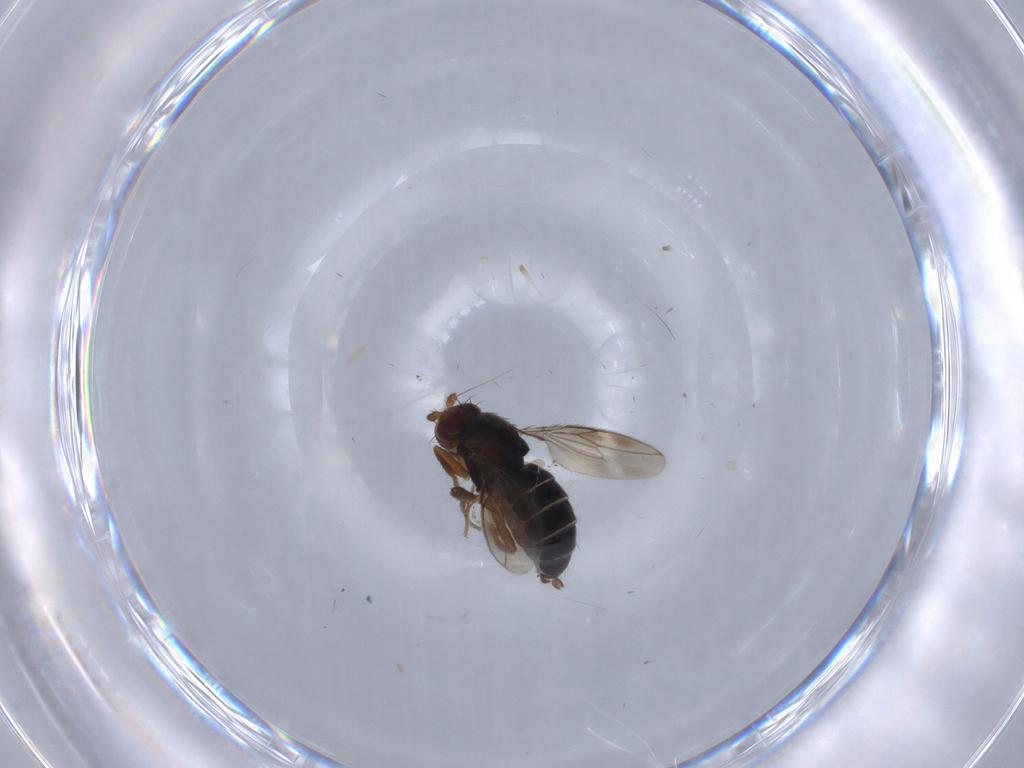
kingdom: Animalia
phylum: Arthropoda
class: Insecta
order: Diptera
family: Sphaeroceridae
